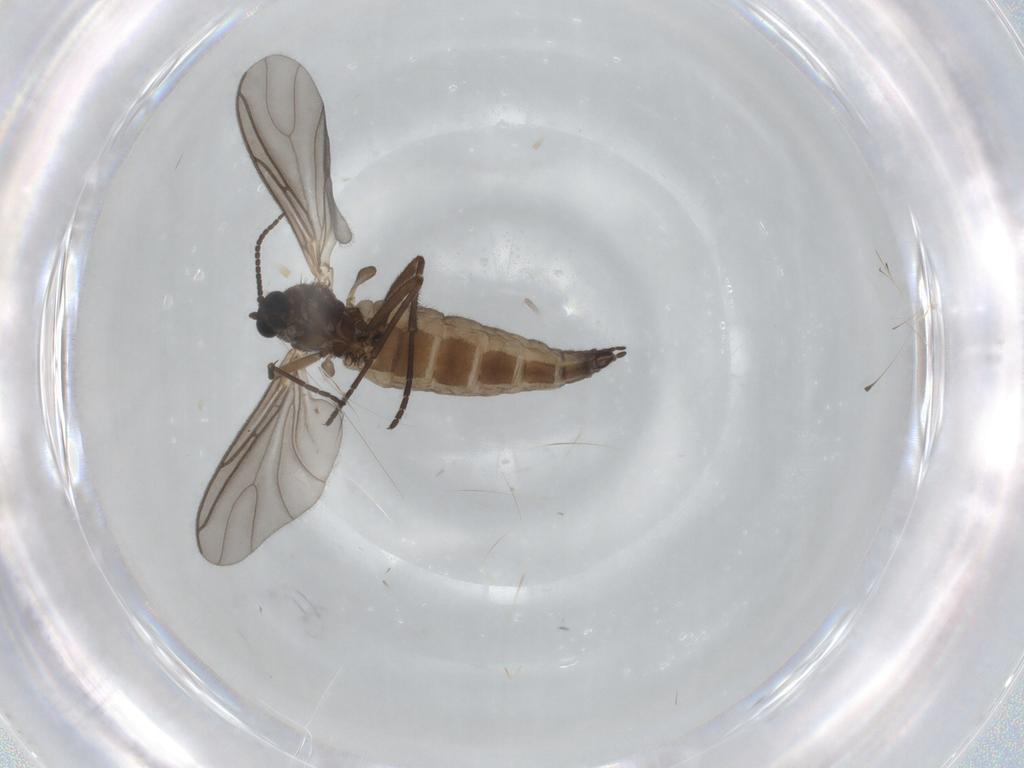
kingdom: Animalia
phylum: Arthropoda
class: Insecta
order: Diptera
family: Sciaridae
